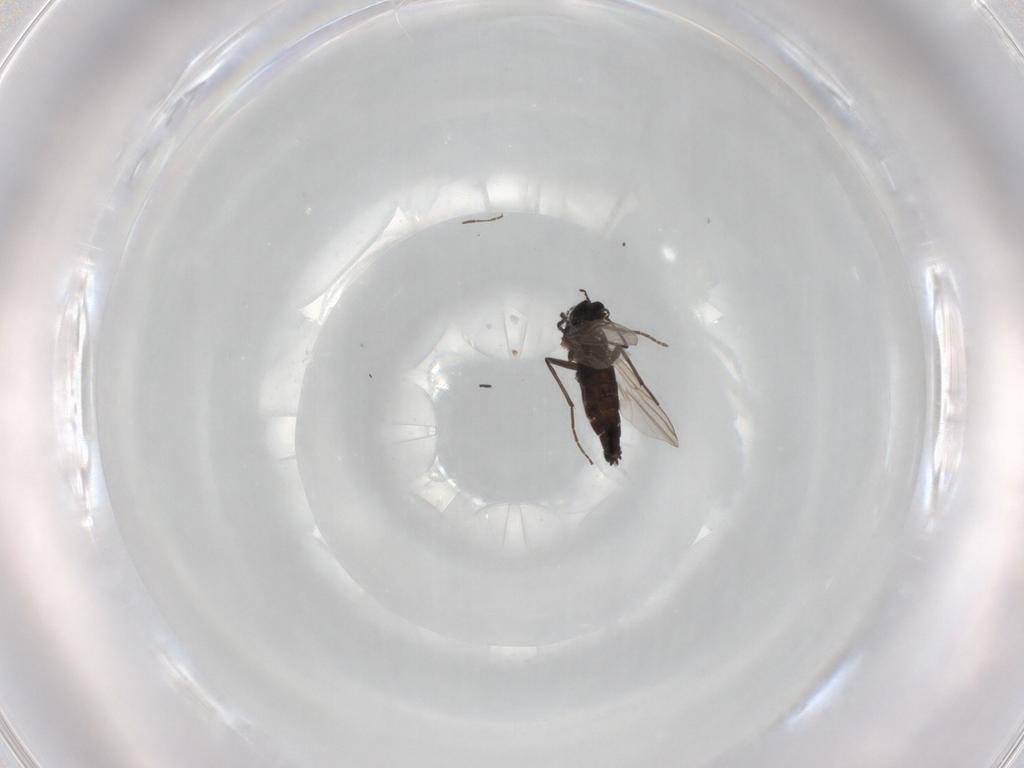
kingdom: Animalia
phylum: Arthropoda
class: Insecta
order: Diptera
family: Chironomidae
